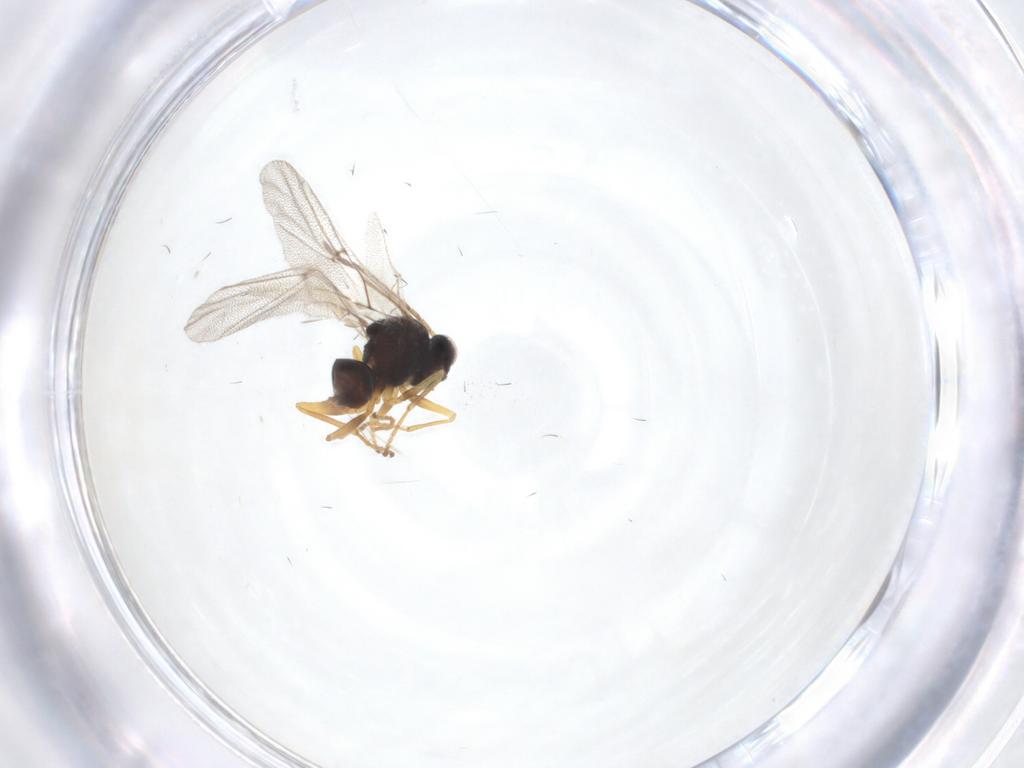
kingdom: Animalia
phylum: Arthropoda
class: Insecta
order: Hymenoptera
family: Cynipidae
